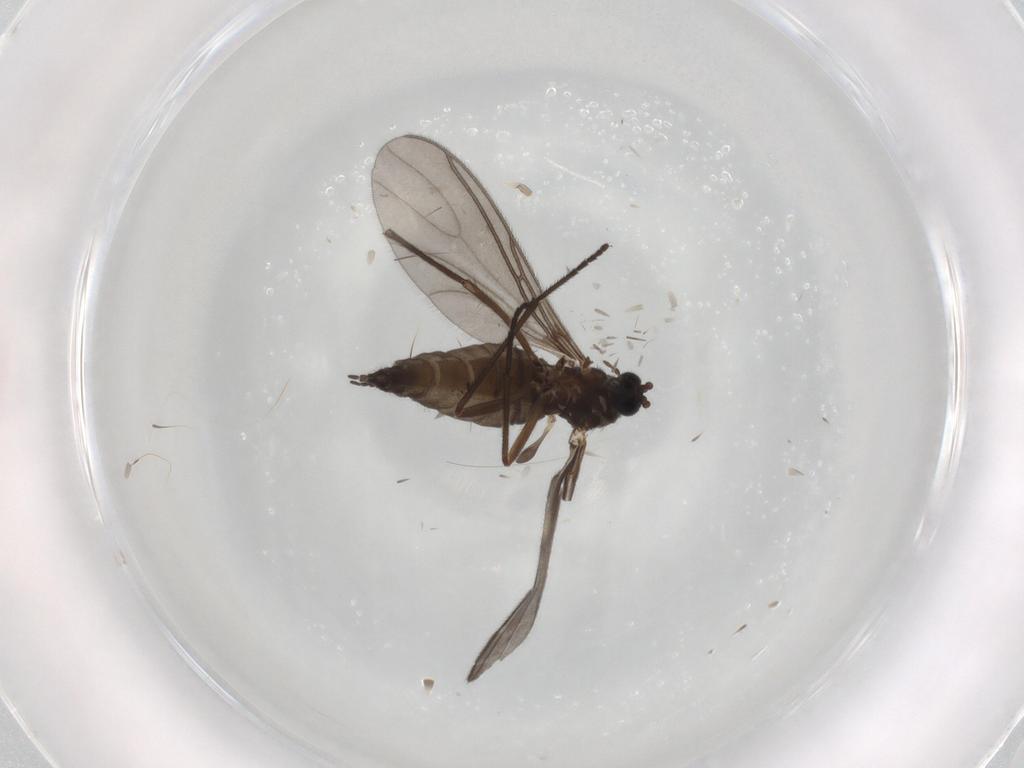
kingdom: Animalia
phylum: Arthropoda
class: Insecta
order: Diptera
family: Sciaridae
